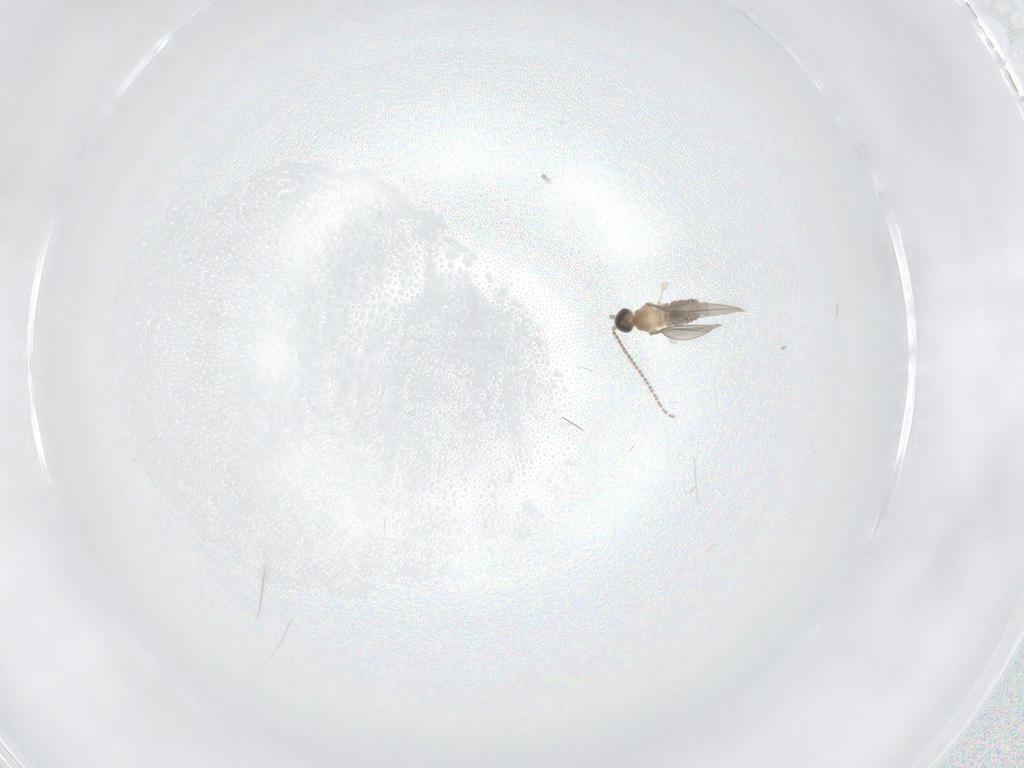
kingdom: Animalia
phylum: Arthropoda
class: Insecta
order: Diptera
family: Cecidomyiidae
